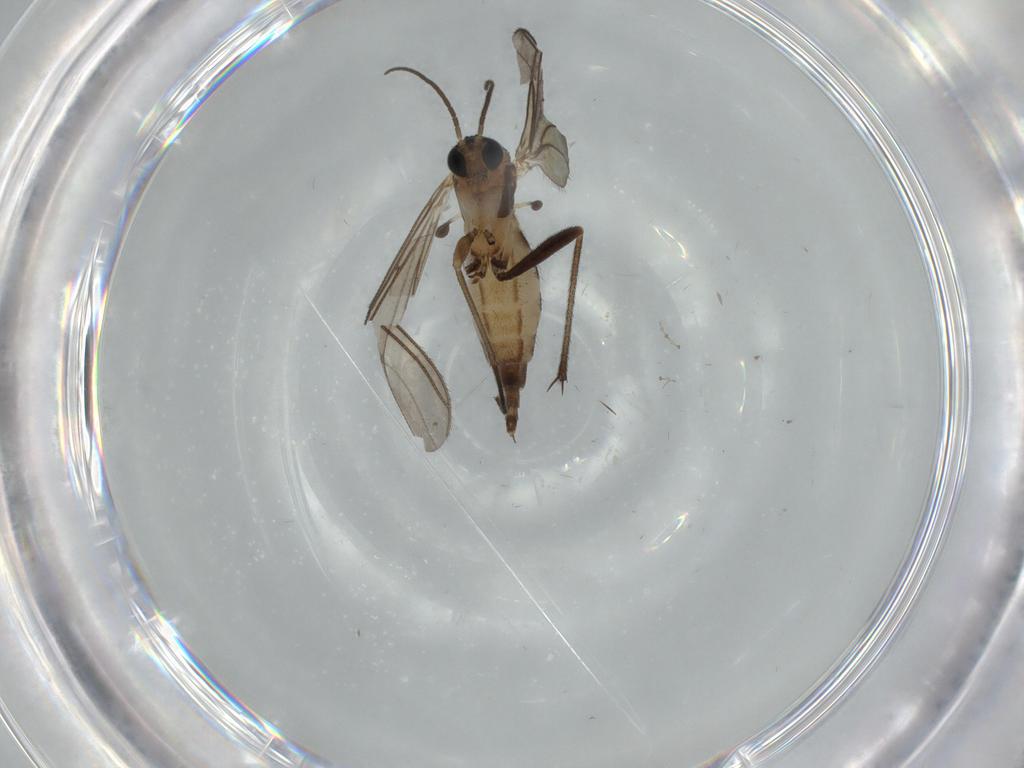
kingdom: Animalia
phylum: Arthropoda
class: Insecta
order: Diptera
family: Sciaridae
